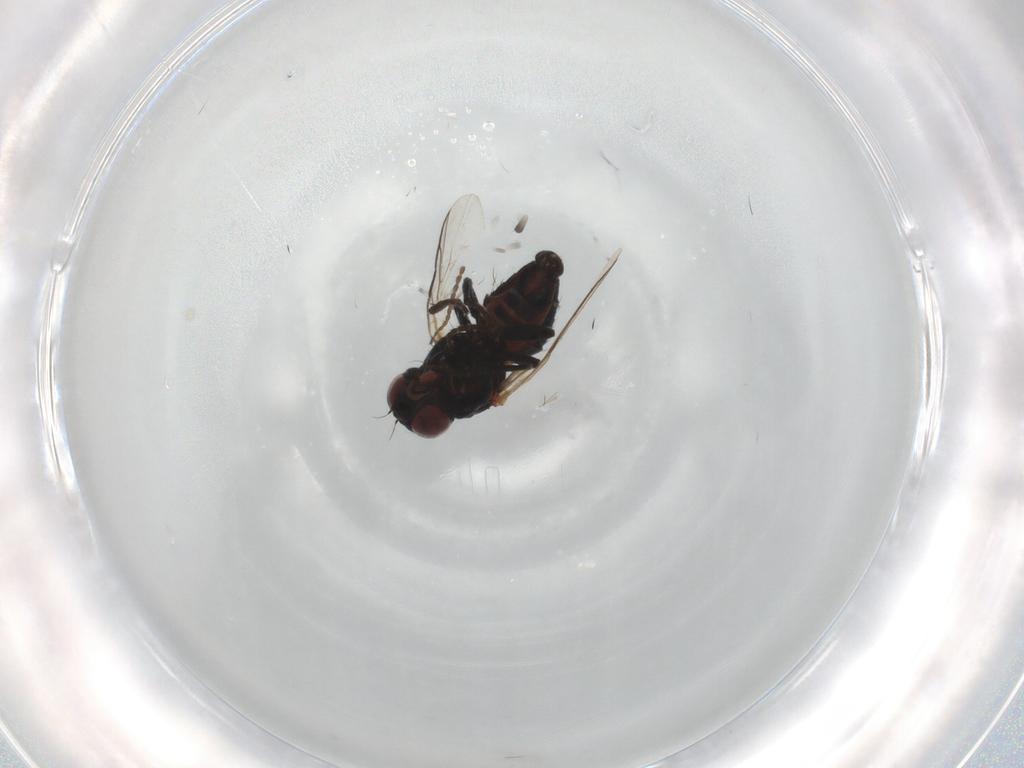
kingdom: Animalia
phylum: Arthropoda
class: Insecta
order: Diptera
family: Agromyzidae
